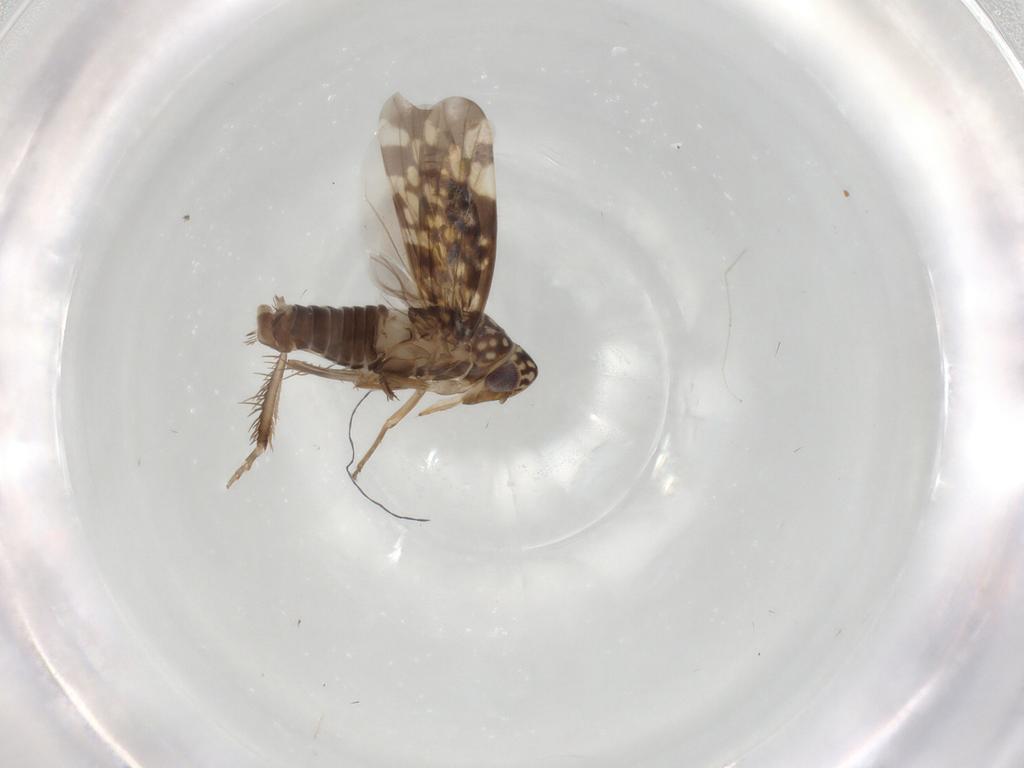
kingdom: Animalia
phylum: Arthropoda
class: Insecta
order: Hemiptera
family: Cicadellidae
